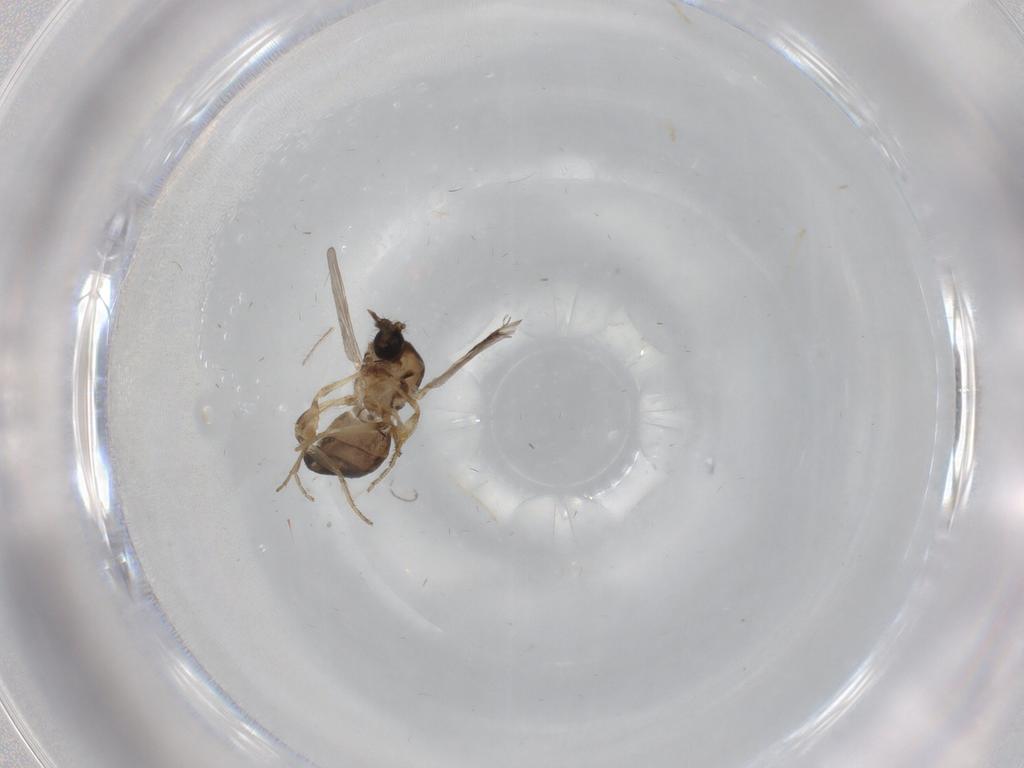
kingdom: Animalia
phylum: Arthropoda
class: Insecta
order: Diptera
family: Ceratopogonidae
